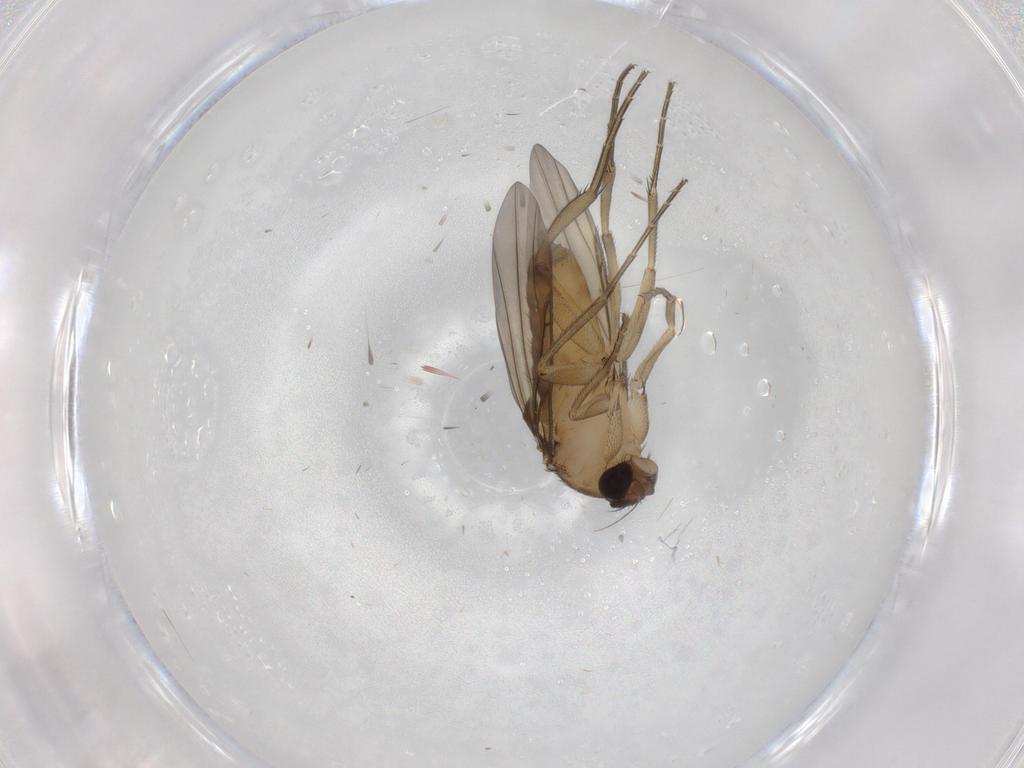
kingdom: Animalia
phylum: Arthropoda
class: Insecta
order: Diptera
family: Phoridae
